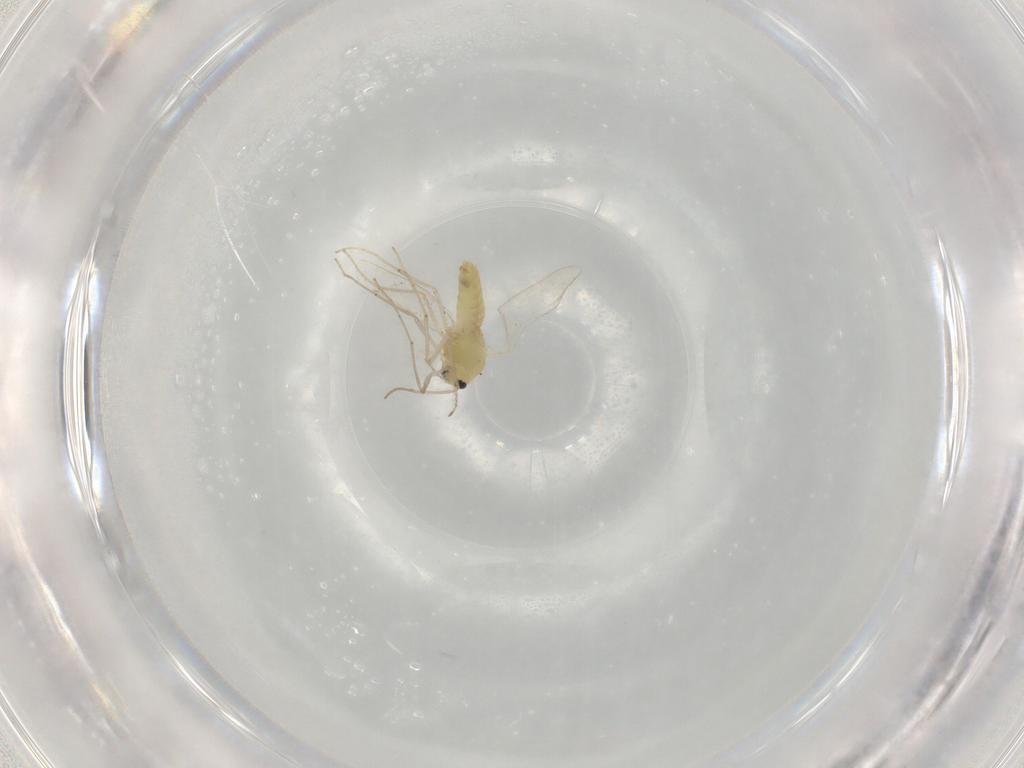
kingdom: Animalia
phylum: Arthropoda
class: Insecta
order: Diptera
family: Chironomidae
